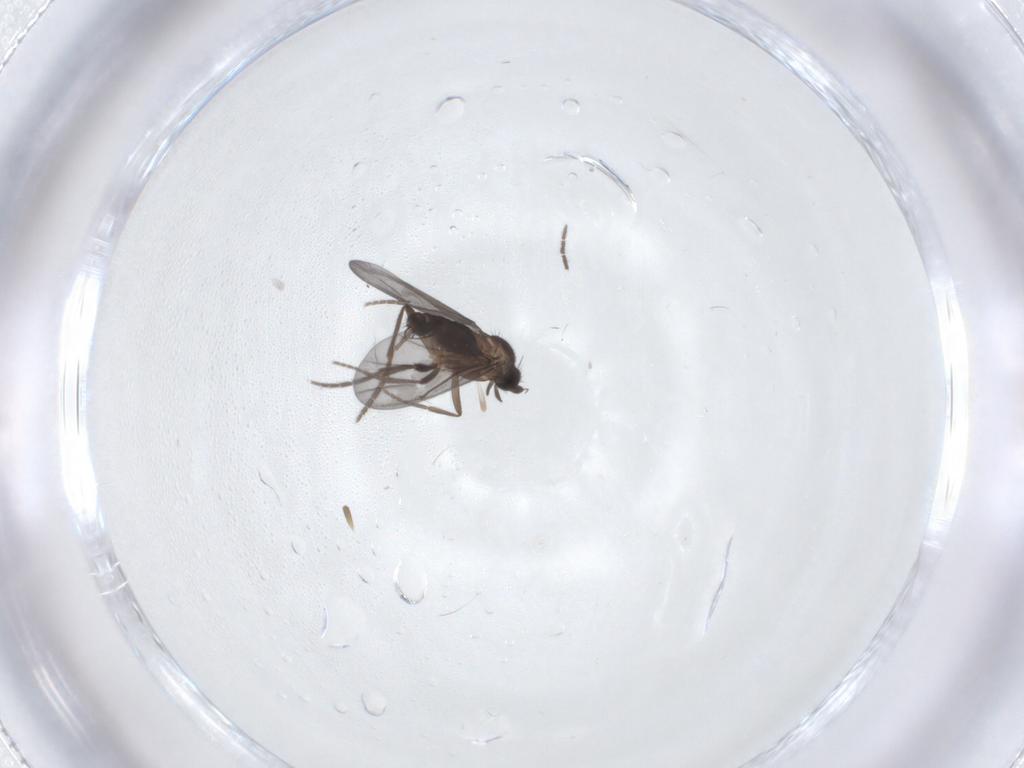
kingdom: Animalia
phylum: Arthropoda
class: Insecta
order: Diptera
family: Phoridae
